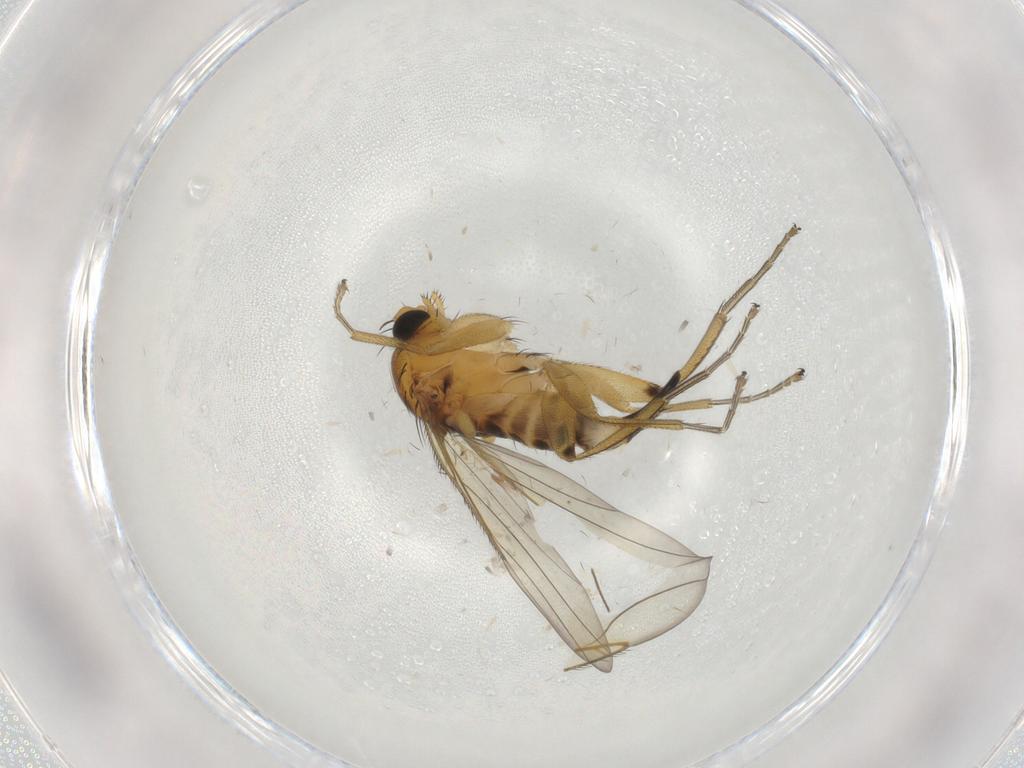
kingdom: Animalia
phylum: Arthropoda
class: Insecta
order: Diptera
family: Phoridae
